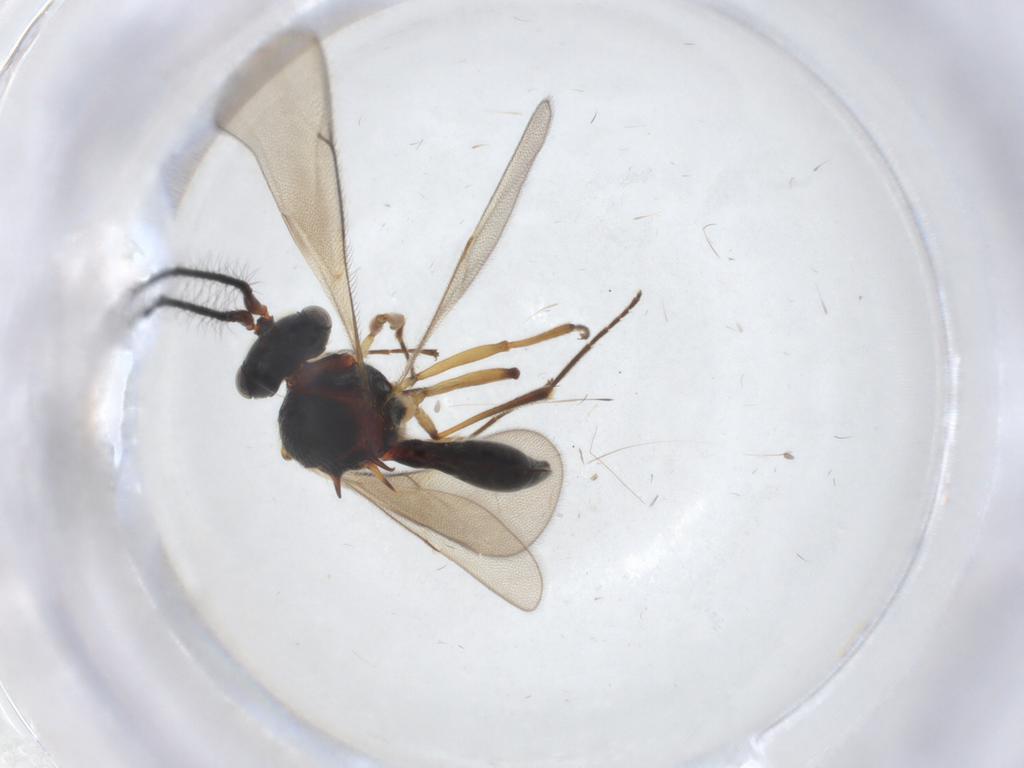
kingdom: Animalia
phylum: Arthropoda
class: Insecta
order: Hymenoptera
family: Scelionidae
